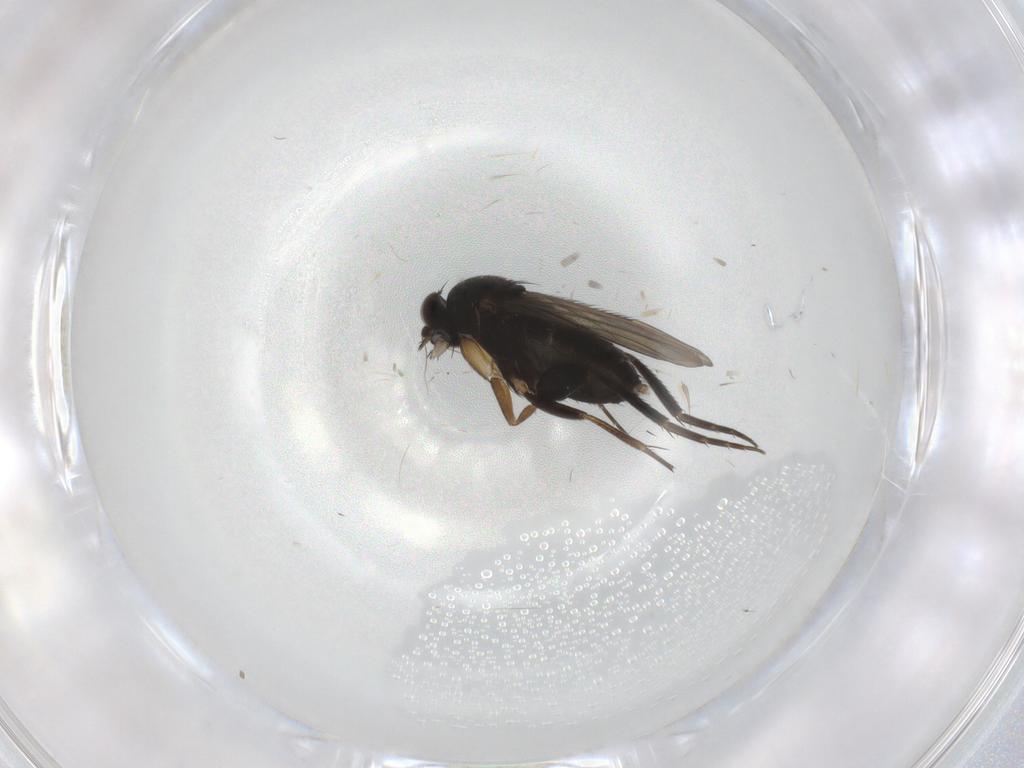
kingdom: Animalia
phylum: Arthropoda
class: Insecta
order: Diptera
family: Phoridae
